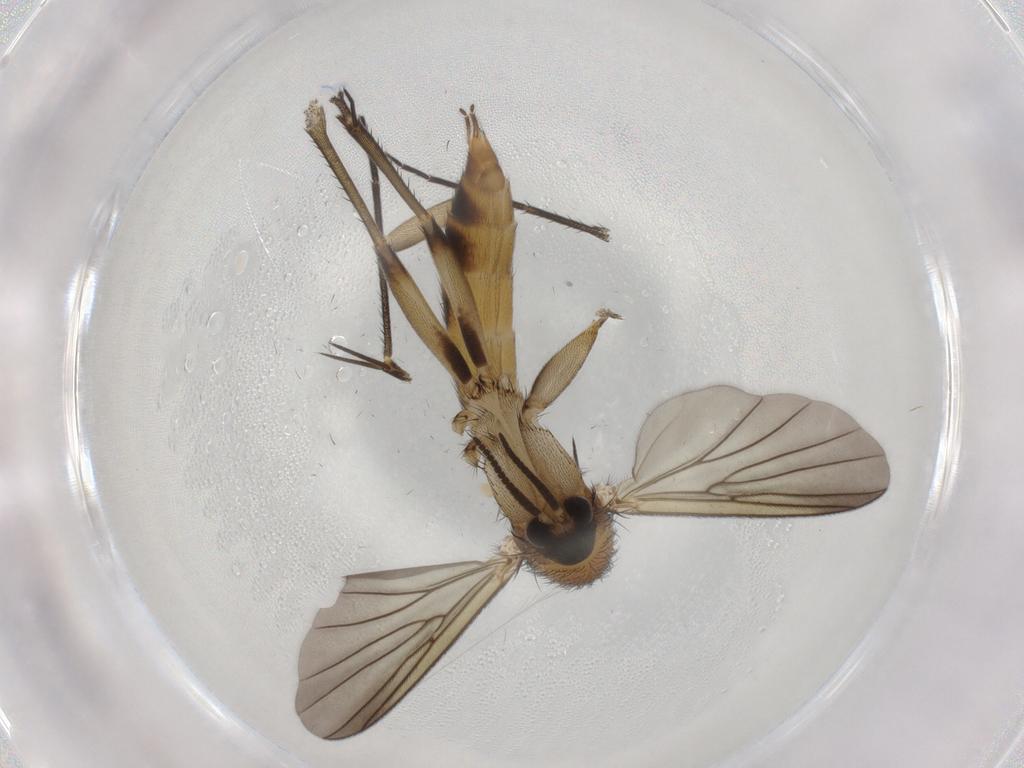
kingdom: Animalia
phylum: Arthropoda
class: Insecta
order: Diptera
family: Mycetophilidae
